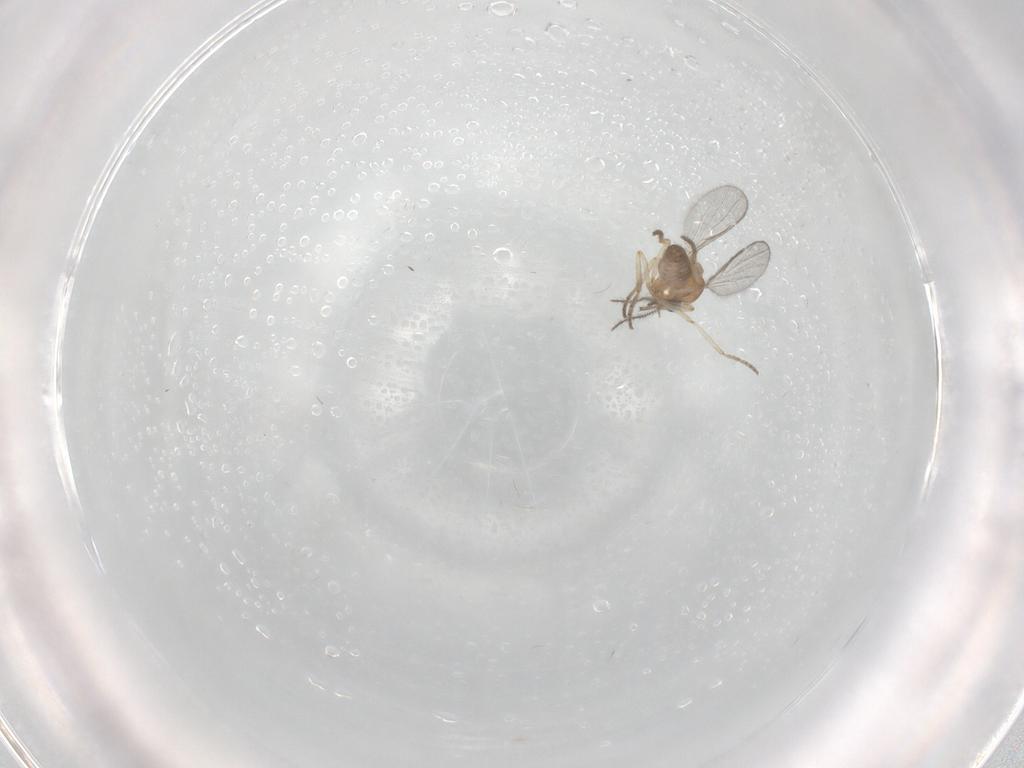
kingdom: Animalia
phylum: Arthropoda
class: Insecta
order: Diptera
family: Ceratopogonidae
